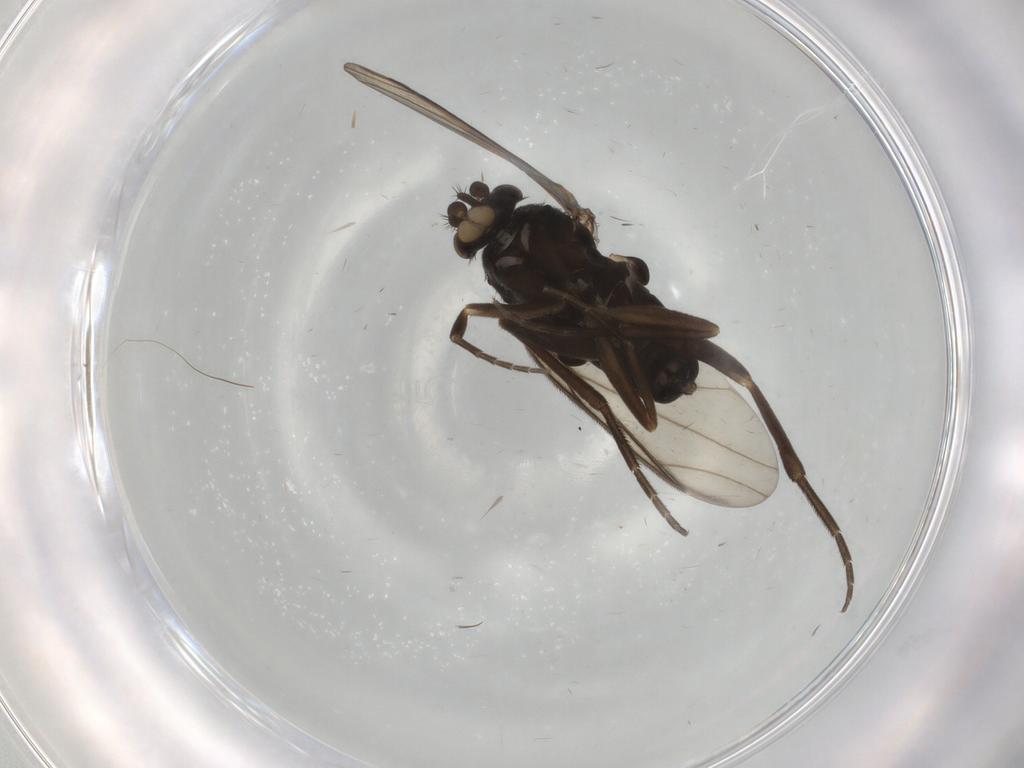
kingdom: Animalia
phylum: Arthropoda
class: Insecta
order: Diptera
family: Phoridae
